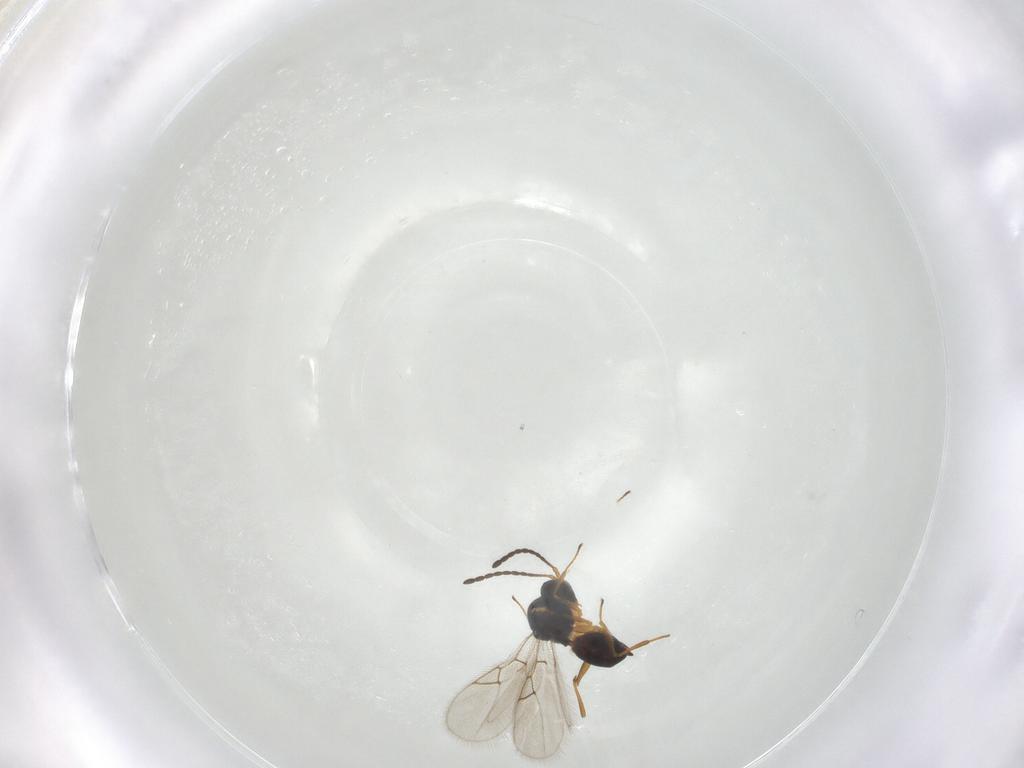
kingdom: Animalia
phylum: Arthropoda
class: Insecta
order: Hymenoptera
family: Figitidae
